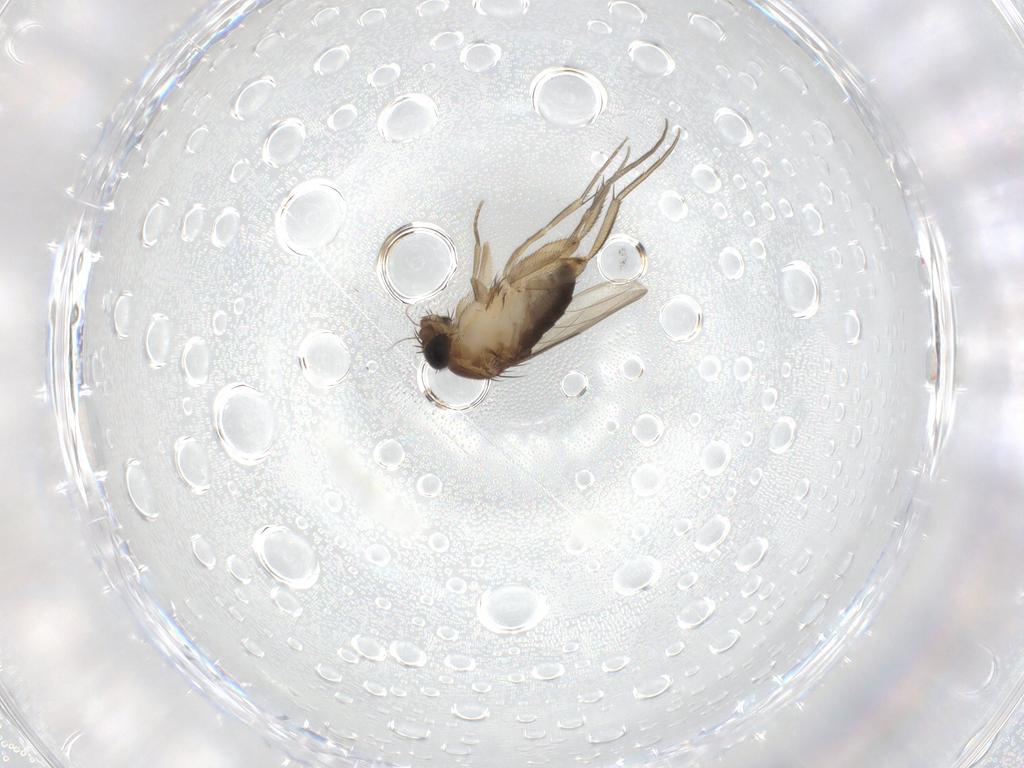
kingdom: Animalia
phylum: Arthropoda
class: Insecta
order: Diptera
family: Phoridae
